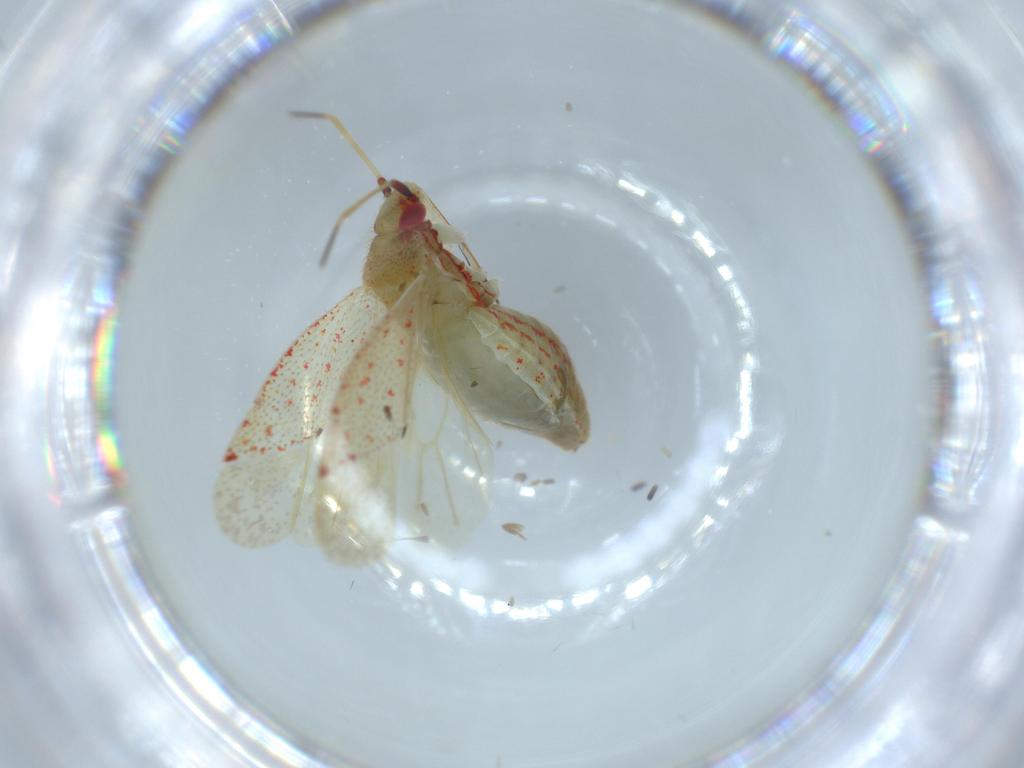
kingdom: Animalia
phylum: Arthropoda
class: Insecta
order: Hemiptera
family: Miridae
